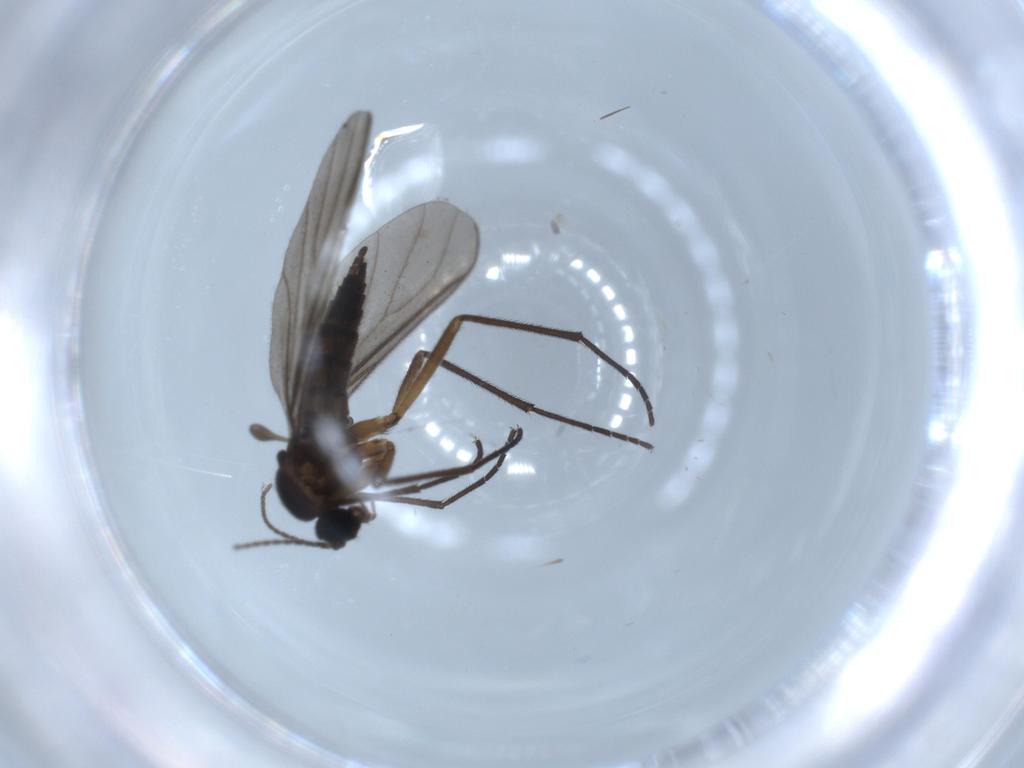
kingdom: Animalia
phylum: Arthropoda
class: Insecta
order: Diptera
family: Sciaridae
